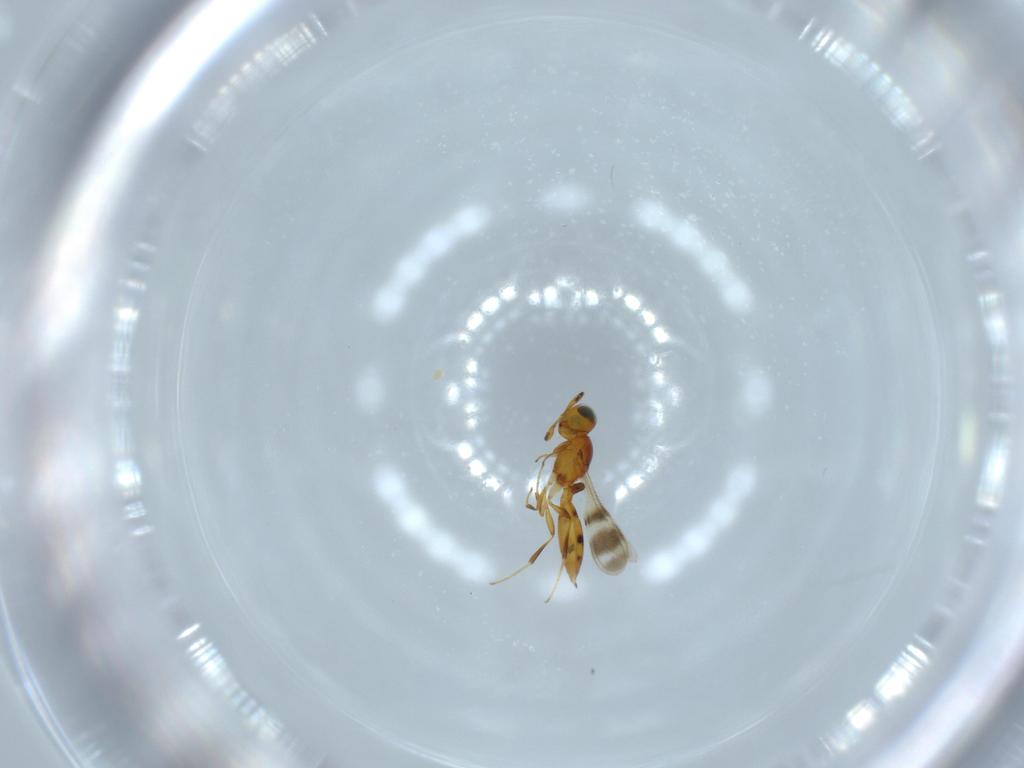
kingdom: Animalia
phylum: Arthropoda
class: Insecta
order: Hymenoptera
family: Scelionidae
